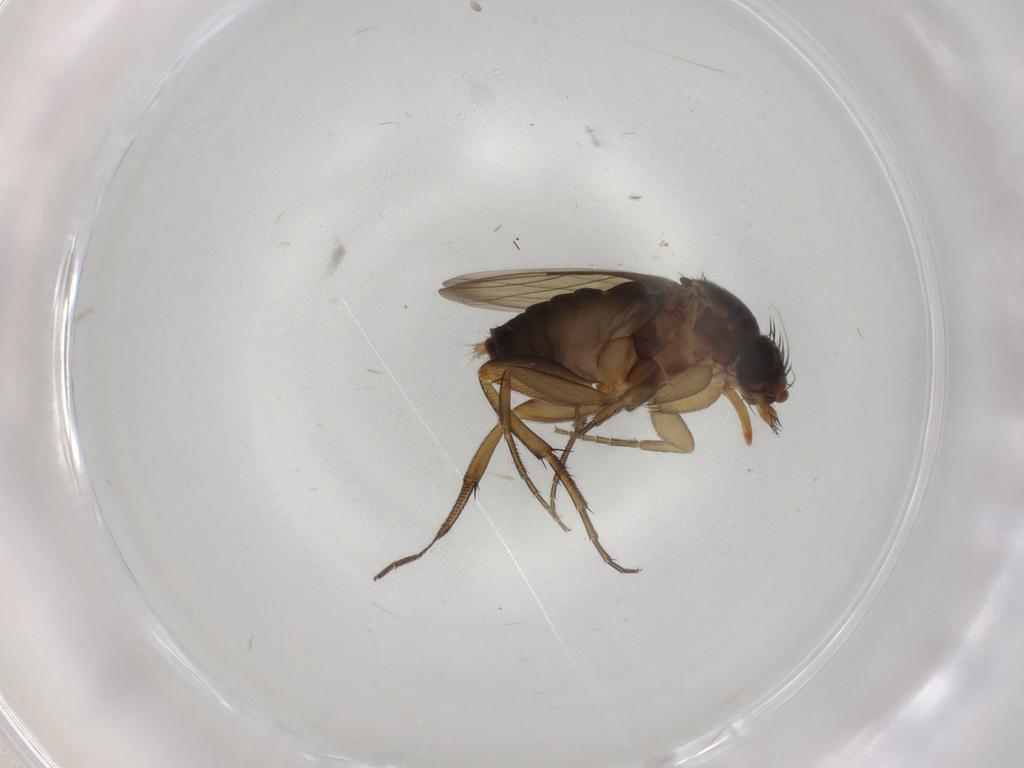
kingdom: Animalia
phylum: Arthropoda
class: Insecta
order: Diptera
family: Phoridae
